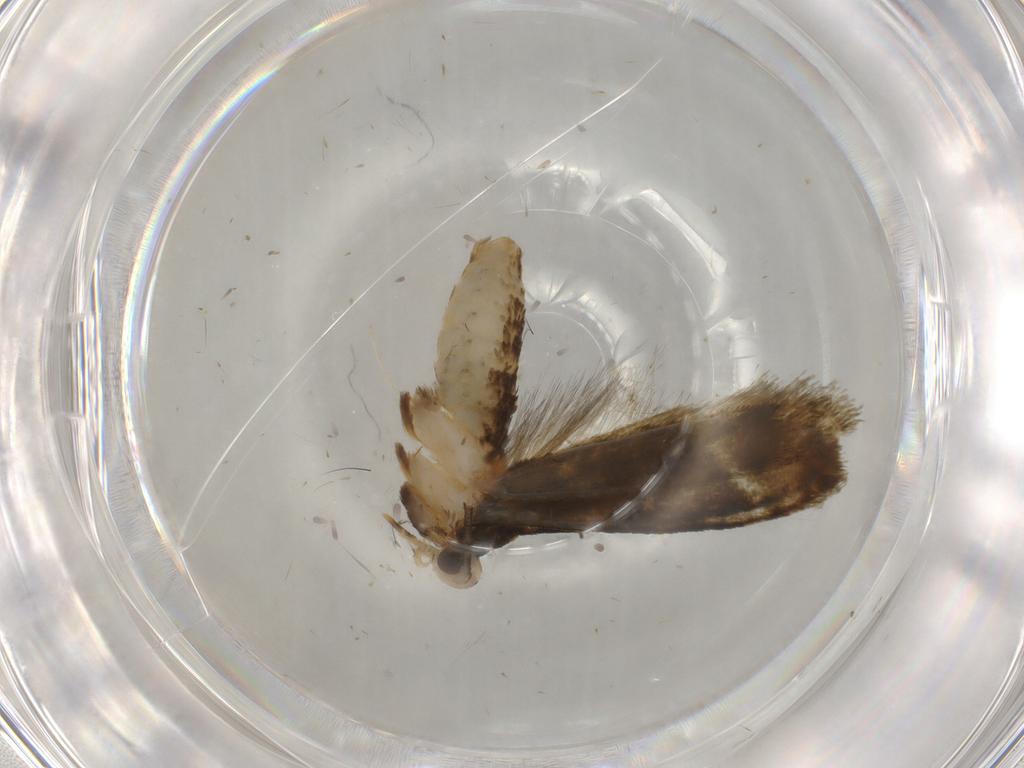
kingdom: Animalia
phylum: Arthropoda
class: Insecta
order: Lepidoptera
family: Tineidae
